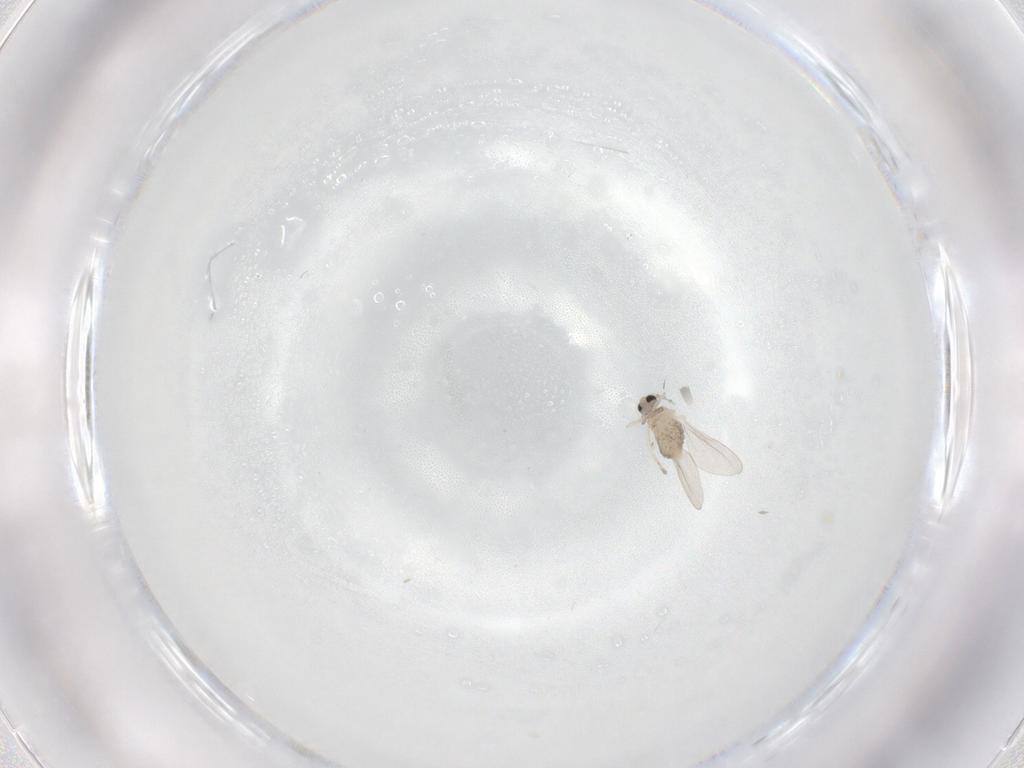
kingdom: Animalia
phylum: Arthropoda
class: Insecta
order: Diptera
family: Cecidomyiidae
